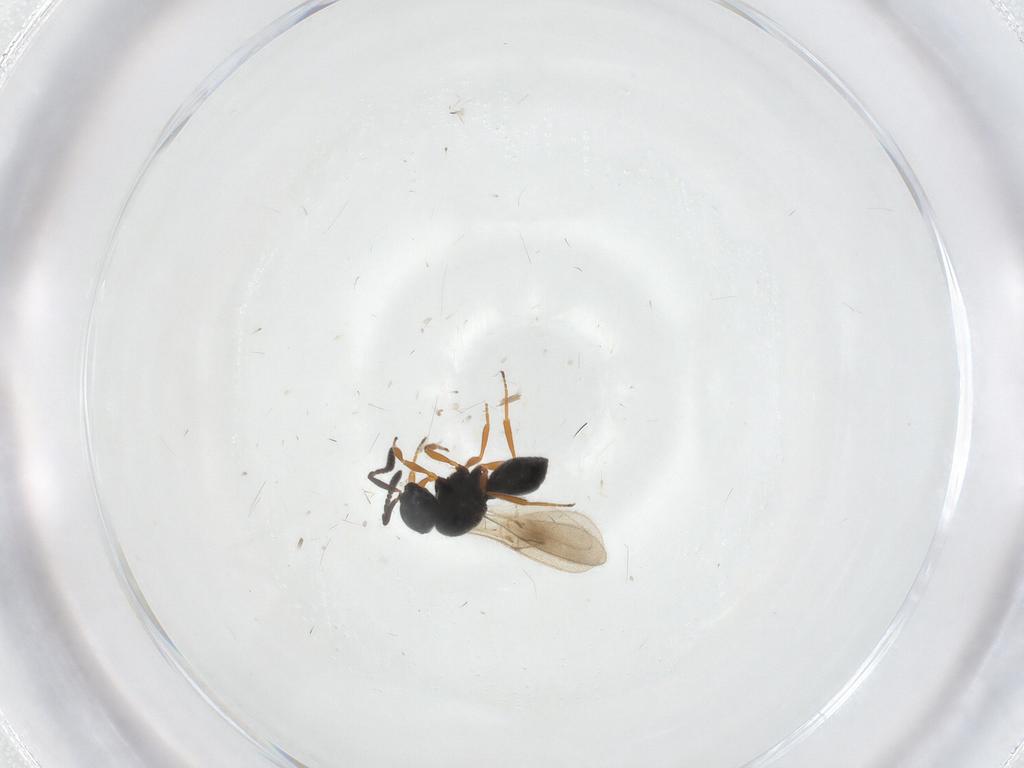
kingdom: Animalia
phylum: Arthropoda
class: Insecta
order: Hymenoptera
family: Scelionidae
